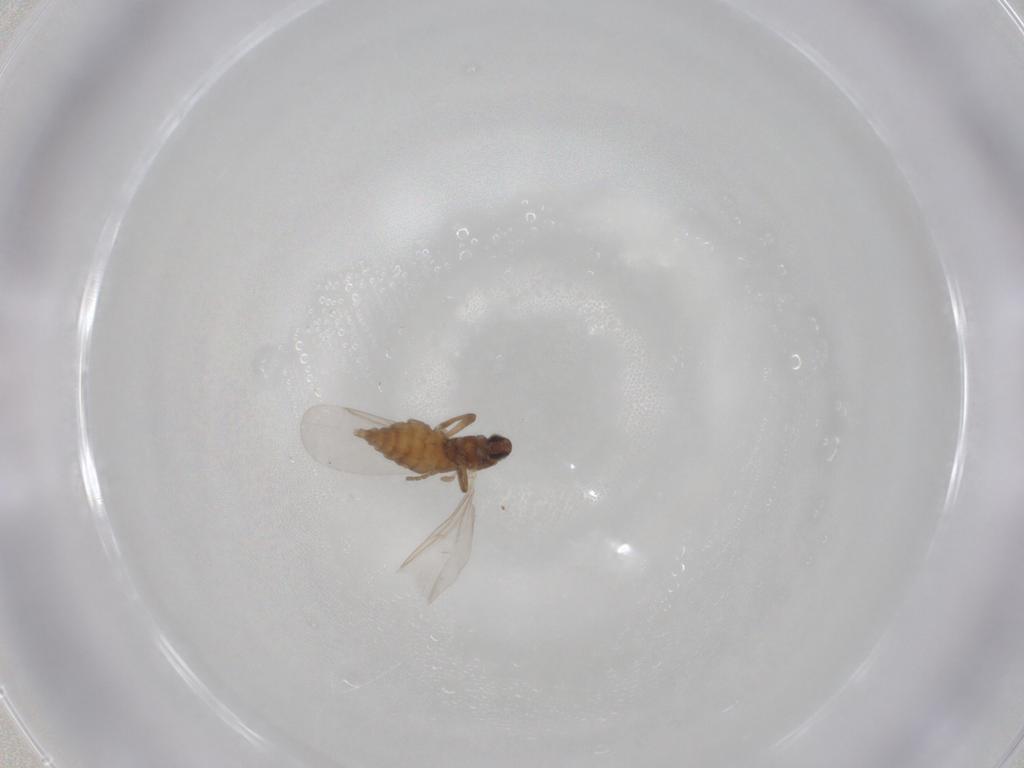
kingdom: Animalia
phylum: Arthropoda
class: Insecta
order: Diptera
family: Cecidomyiidae
